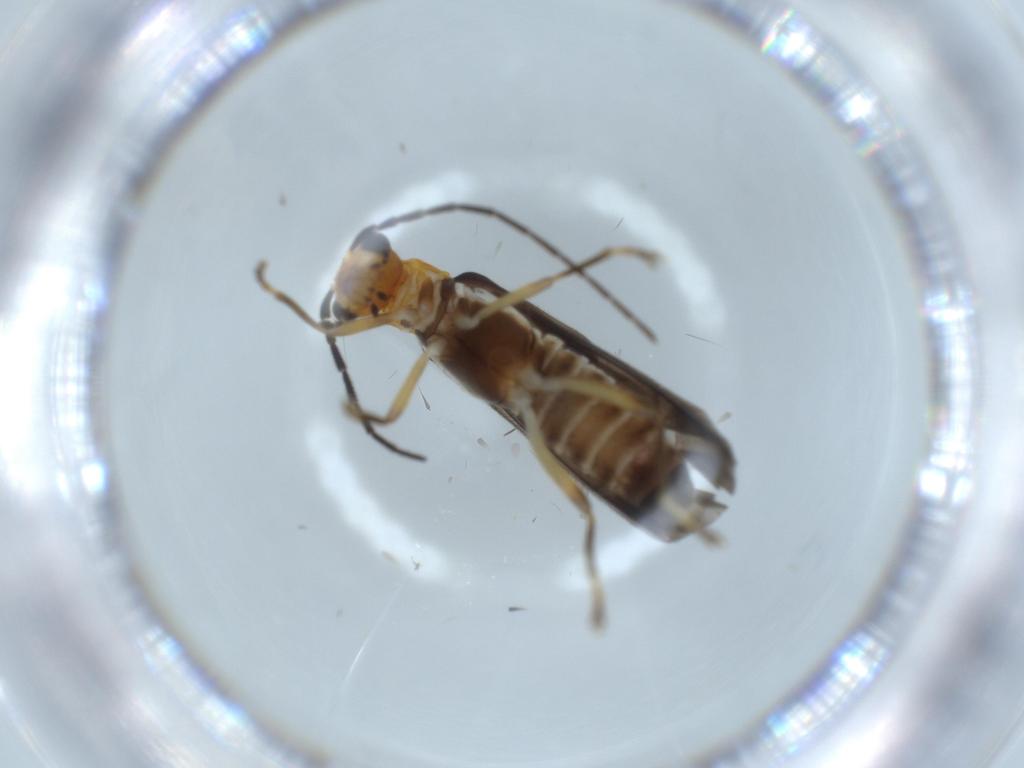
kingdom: Animalia
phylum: Arthropoda
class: Insecta
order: Coleoptera
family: Cantharidae
